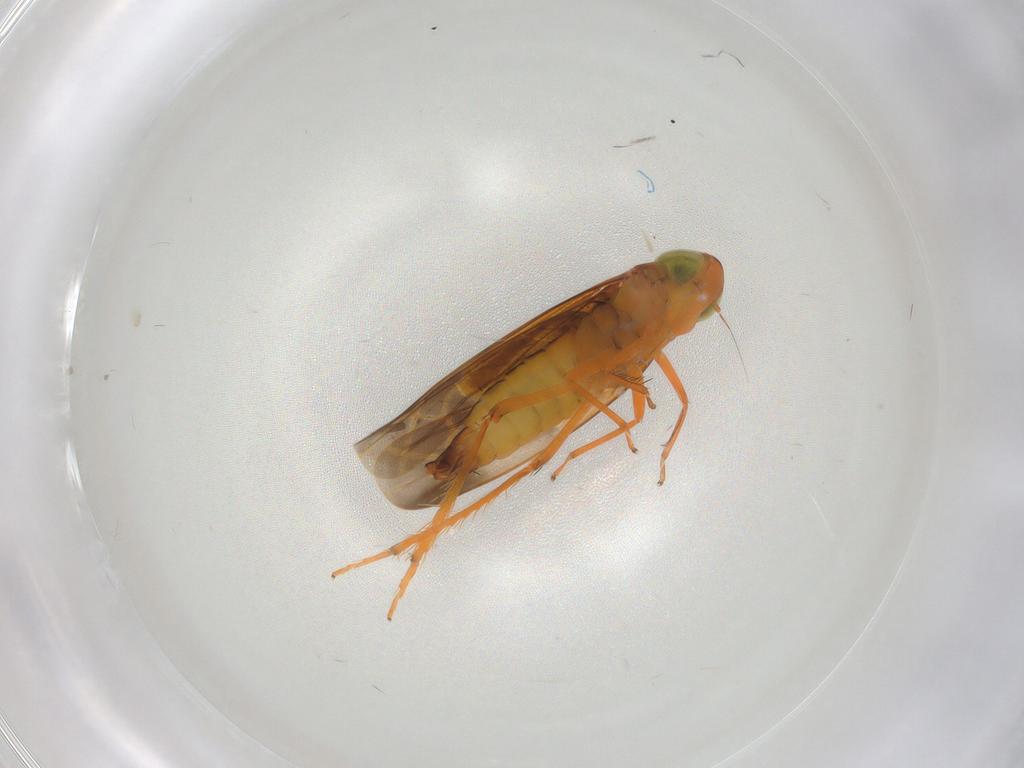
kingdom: Animalia
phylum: Arthropoda
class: Insecta
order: Hemiptera
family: Cicadellidae
